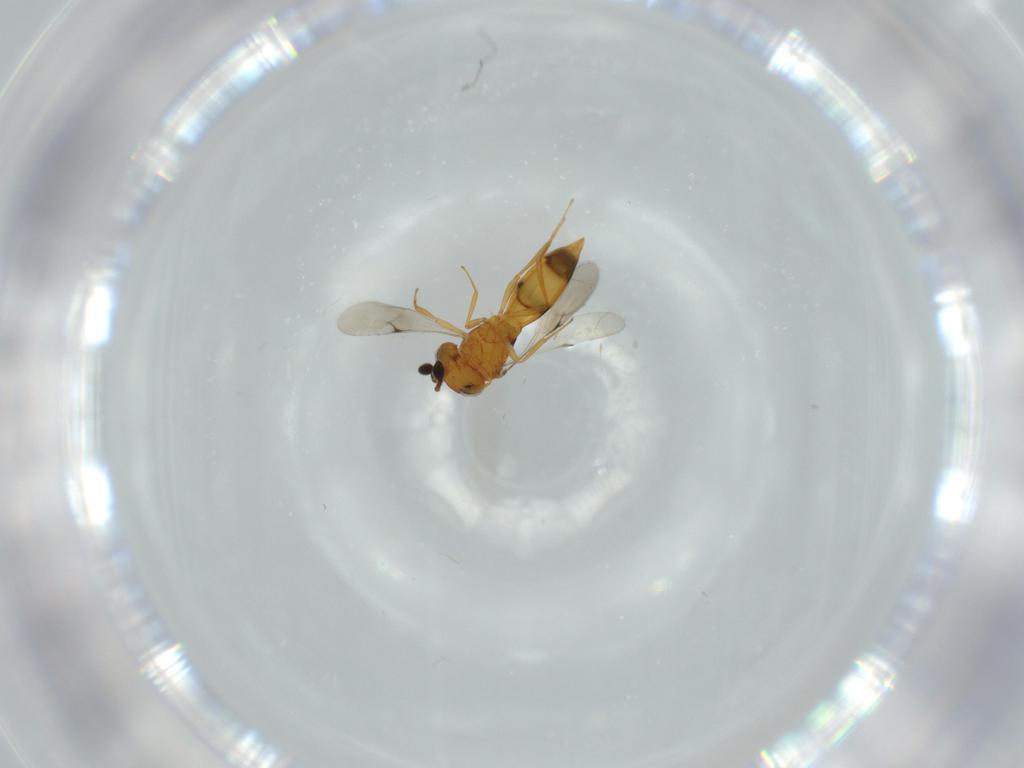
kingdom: Animalia
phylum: Arthropoda
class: Insecta
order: Hymenoptera
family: Scelionidae
